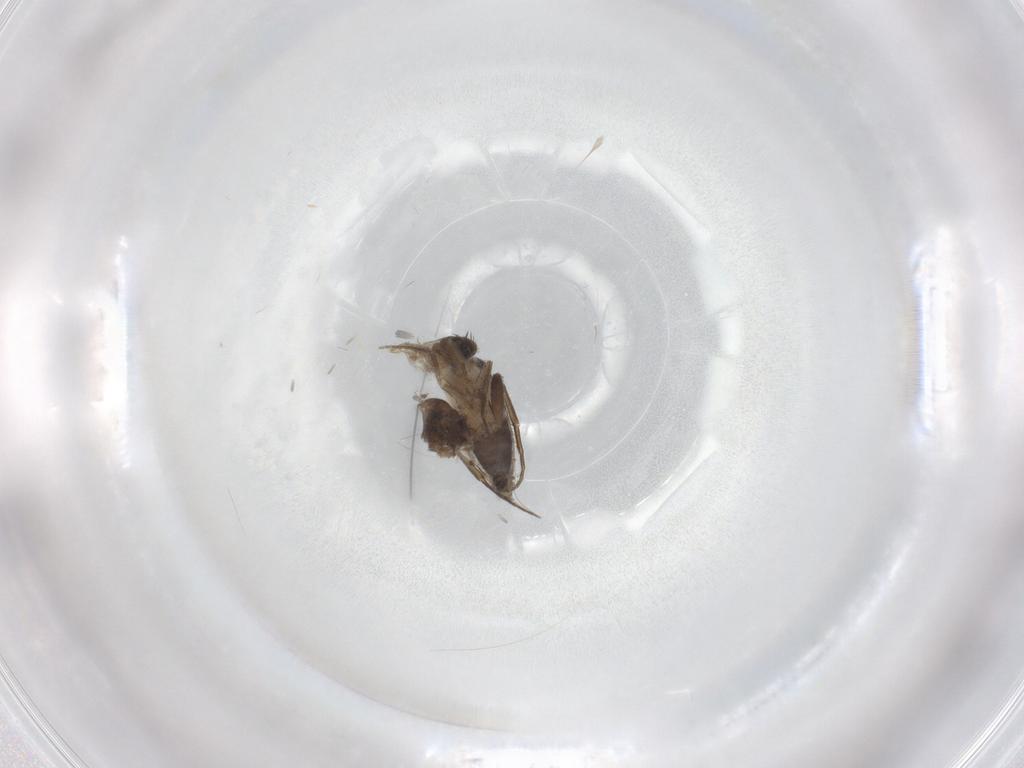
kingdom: Animalia
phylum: Arthropoda
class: Insecta
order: Diptera
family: Phoridae
